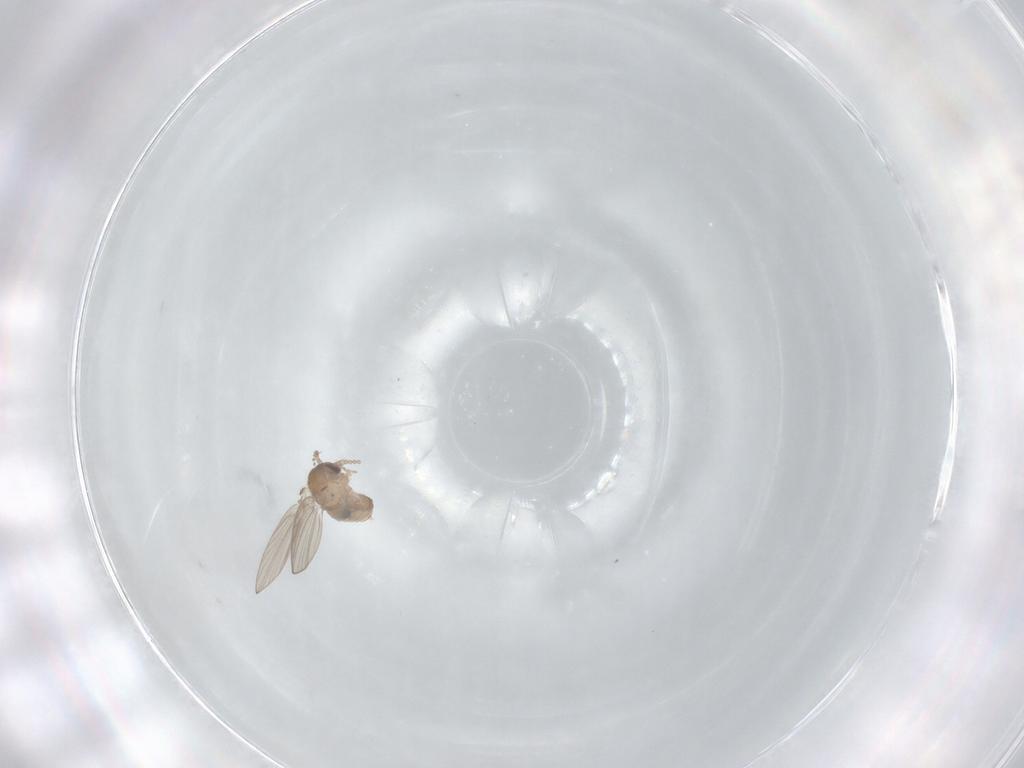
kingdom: Animalia
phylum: Arthropoda
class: Insecta
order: Diptera
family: Psychodidae
